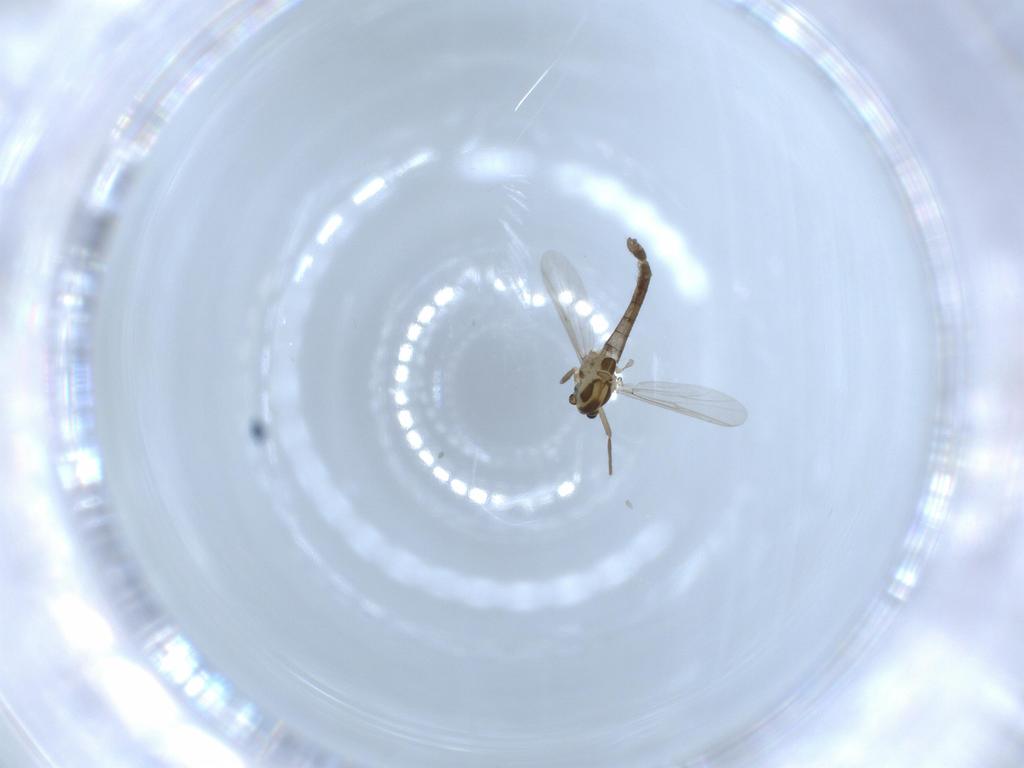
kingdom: Animalia
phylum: Arthropoda
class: Insecta
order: Diptera
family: Chironomidae
